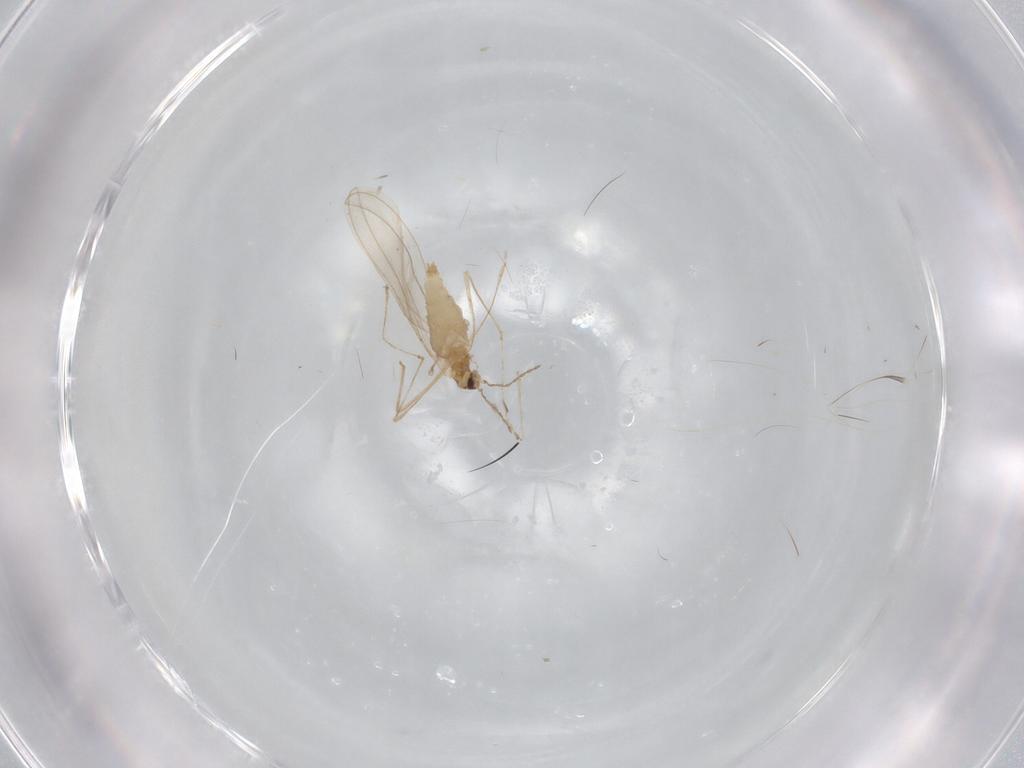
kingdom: Animalia
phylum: Arthropoda
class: Insecta
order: Diptera
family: Cecidomyiidae
